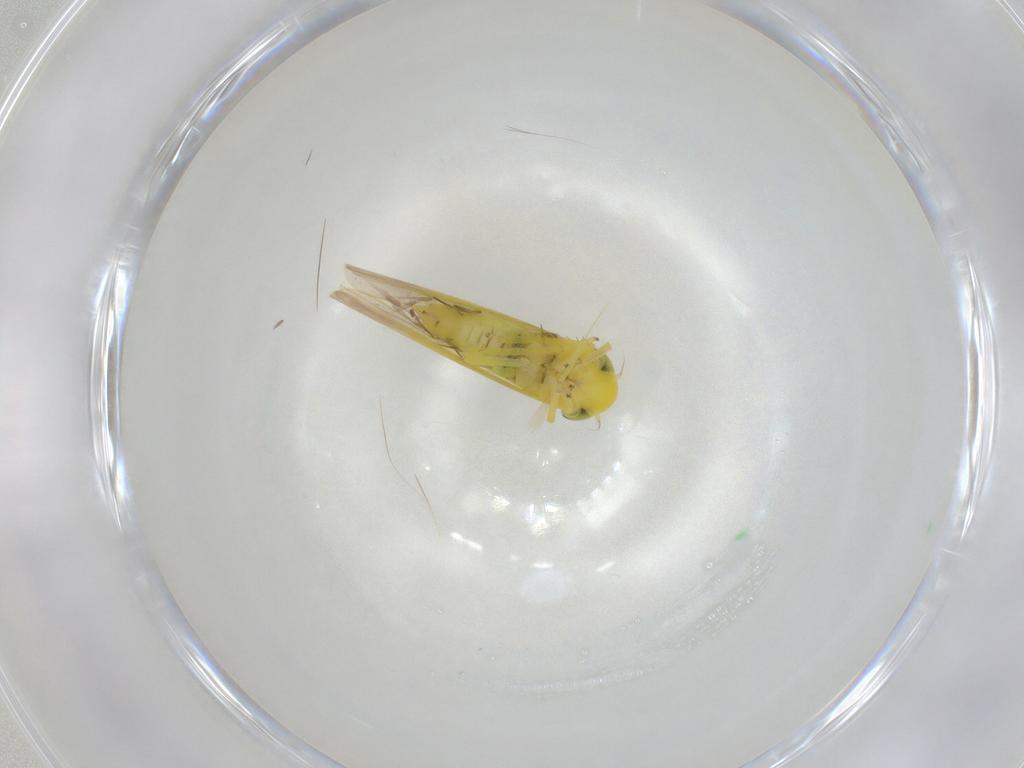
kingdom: Animalia
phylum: Arthropoda
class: Insecta
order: Hemiptera
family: Cicadellidae
